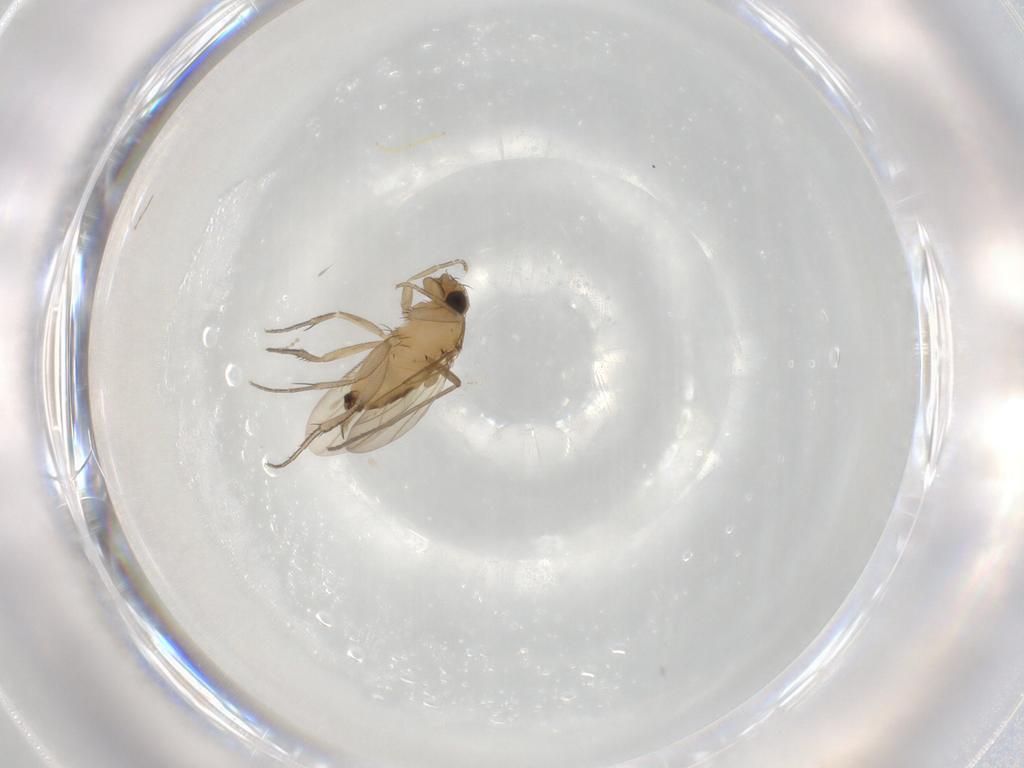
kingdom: Animalia
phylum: Arthropoda
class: Insecta
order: Diptera
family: Phoridae
